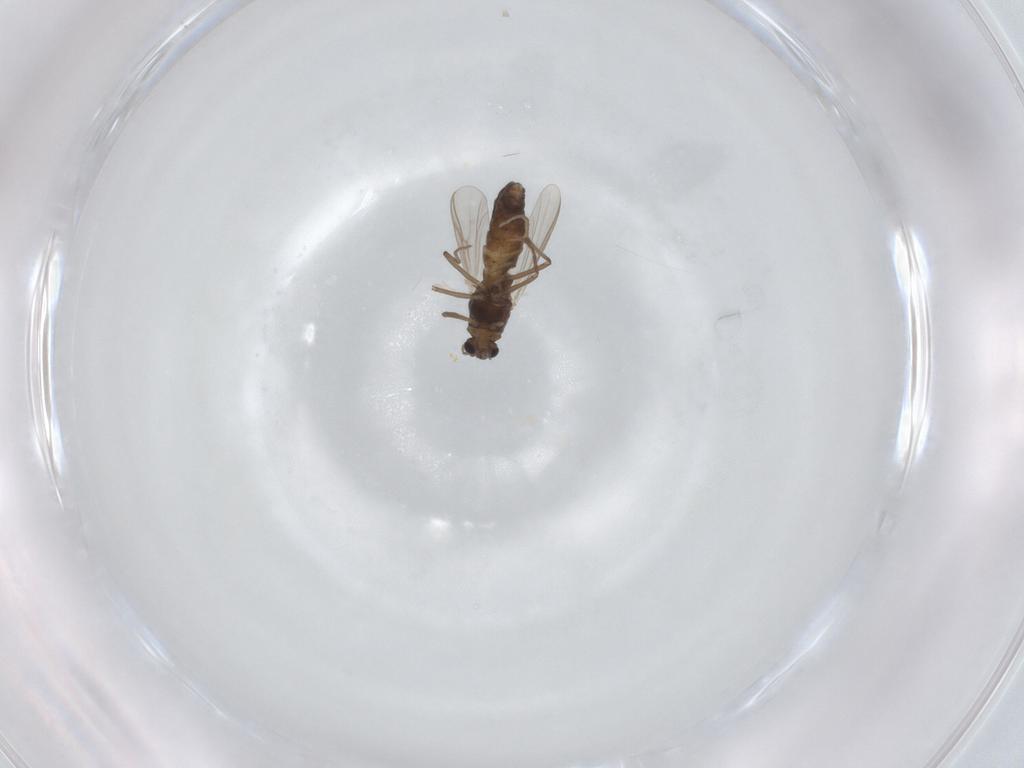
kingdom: Animalia
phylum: Arthropoda
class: Insecta
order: Diptera
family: Chironomidae
